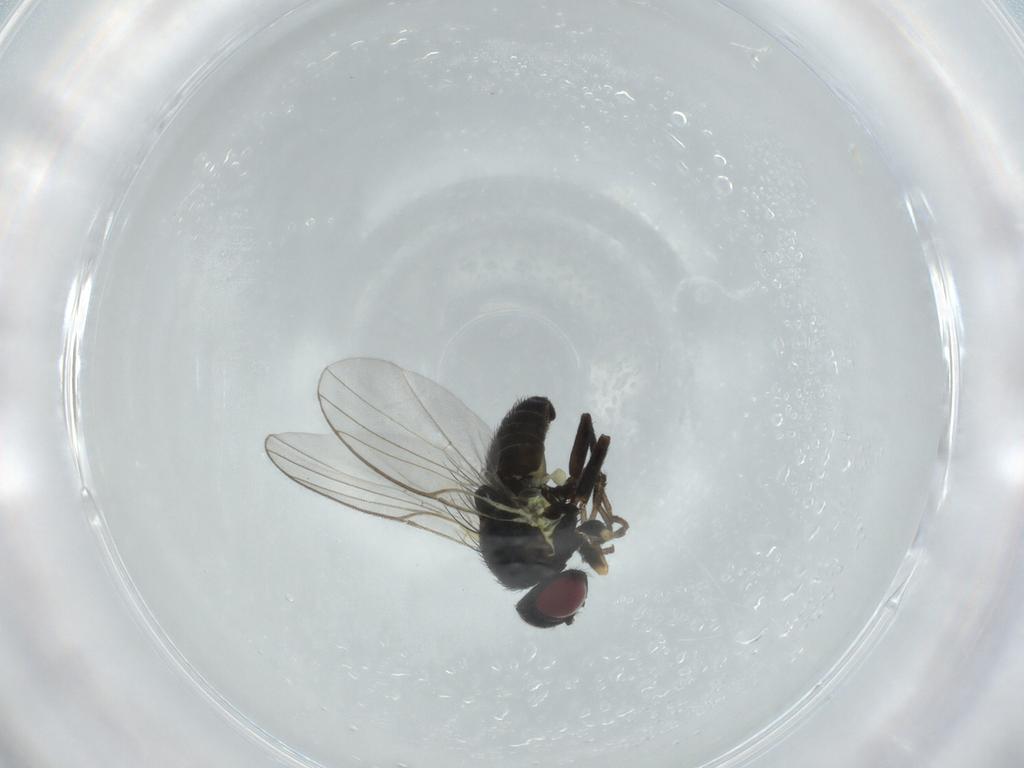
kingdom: Animalia
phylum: Arthropoda
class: Insecta
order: Diptera
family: Agromyzidae
